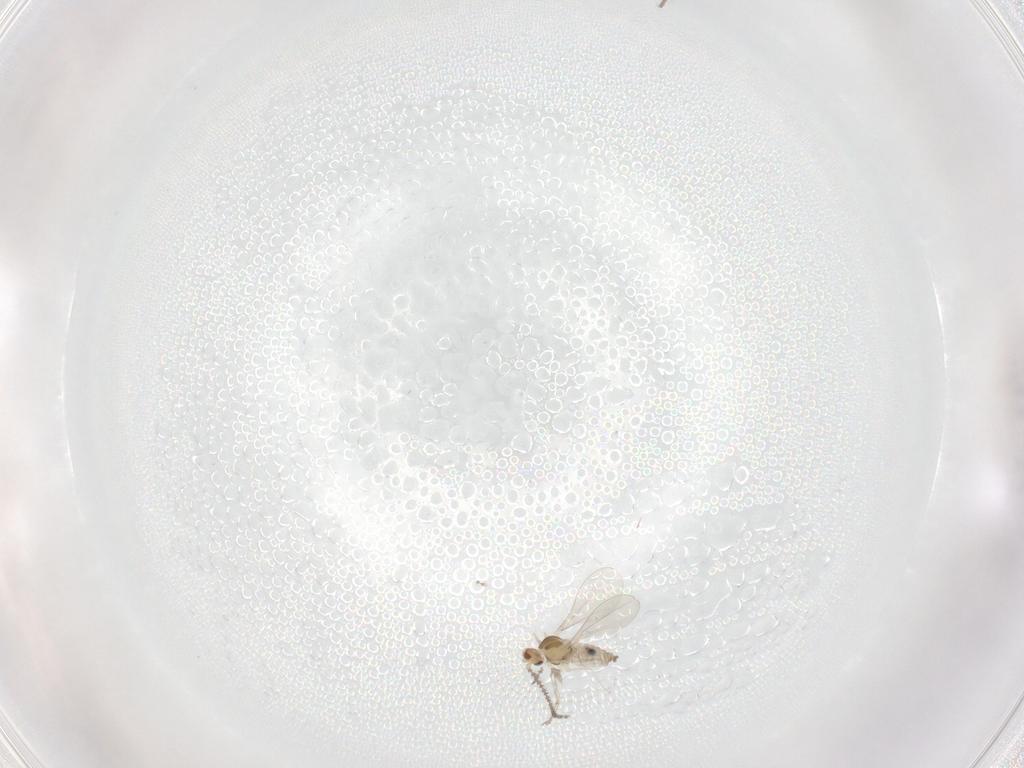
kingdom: Animalia
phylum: Arthropoda
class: Insecta
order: Diptera
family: Cecidomyiidae
